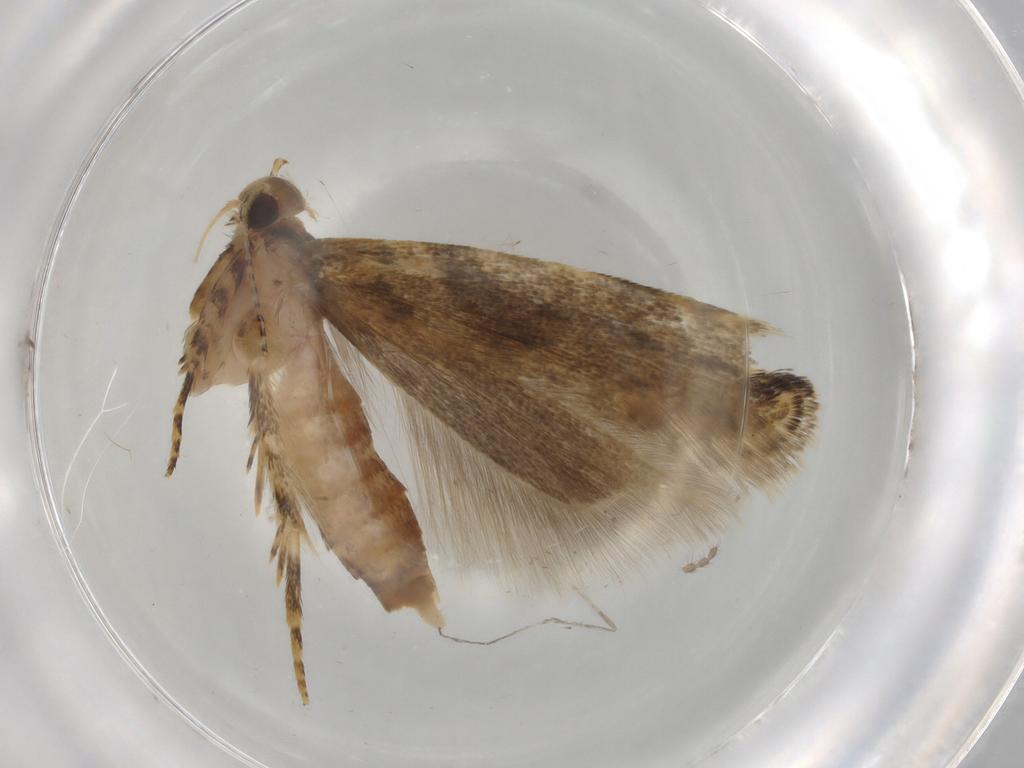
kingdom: Animalia
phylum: Arthropoda
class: Insecta
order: Lepidoptera
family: Gelechiidae
